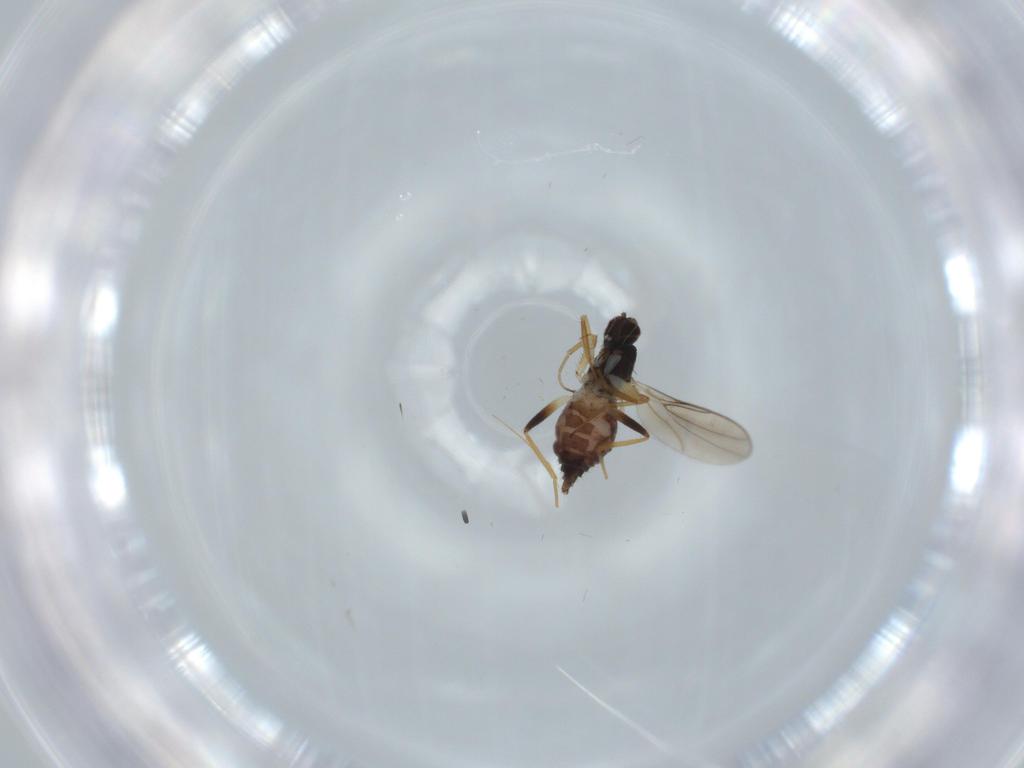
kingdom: Animalia
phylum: Arthropoda
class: Insecta
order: Diptera
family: Hybotidae
